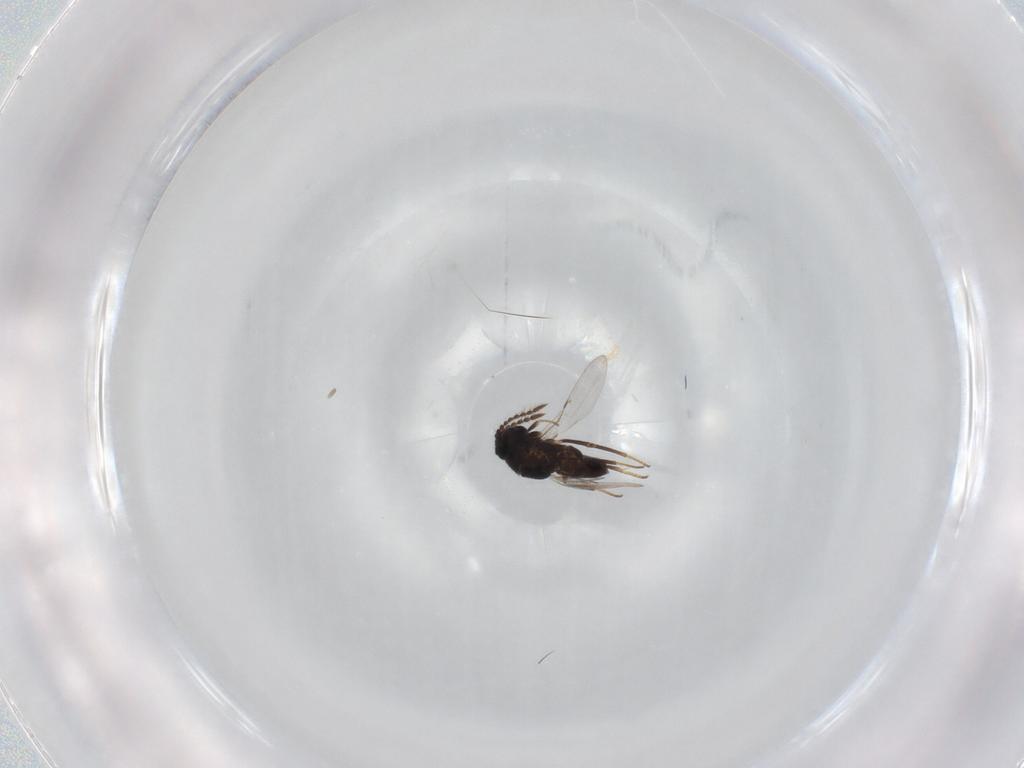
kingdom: Animalia
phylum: Arthropoda
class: Insecta
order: Hymenoptera
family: Encyrtidae
